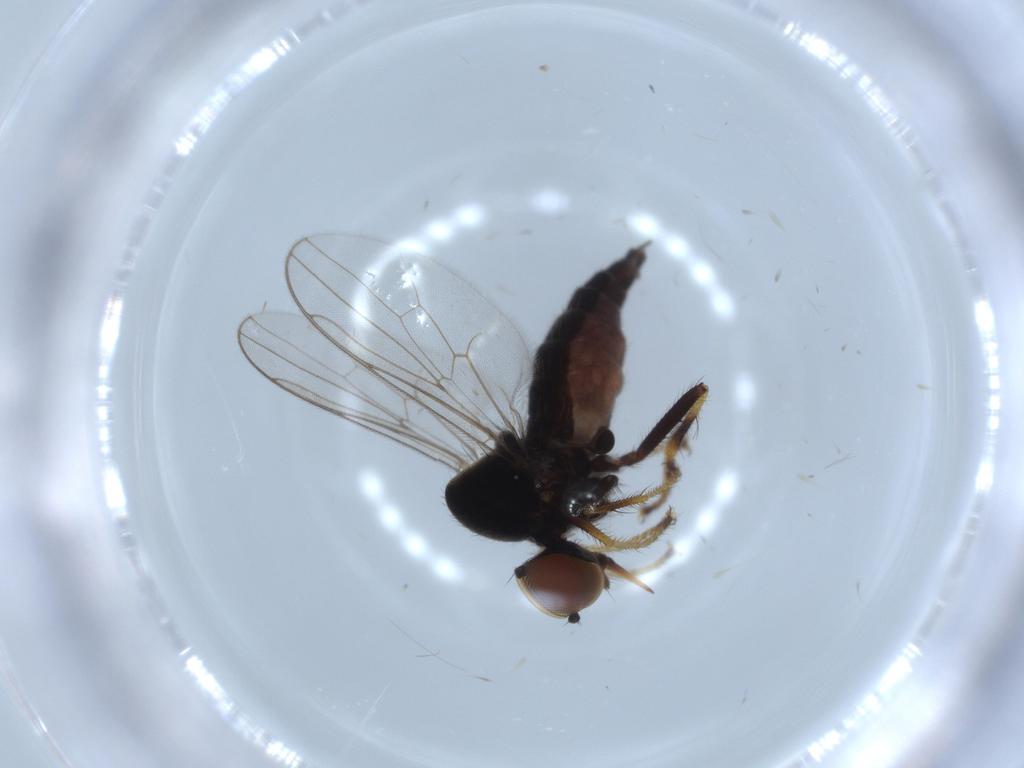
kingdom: Animalia
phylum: Arthropoda
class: Insecta
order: Diptera
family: Hybotidae
